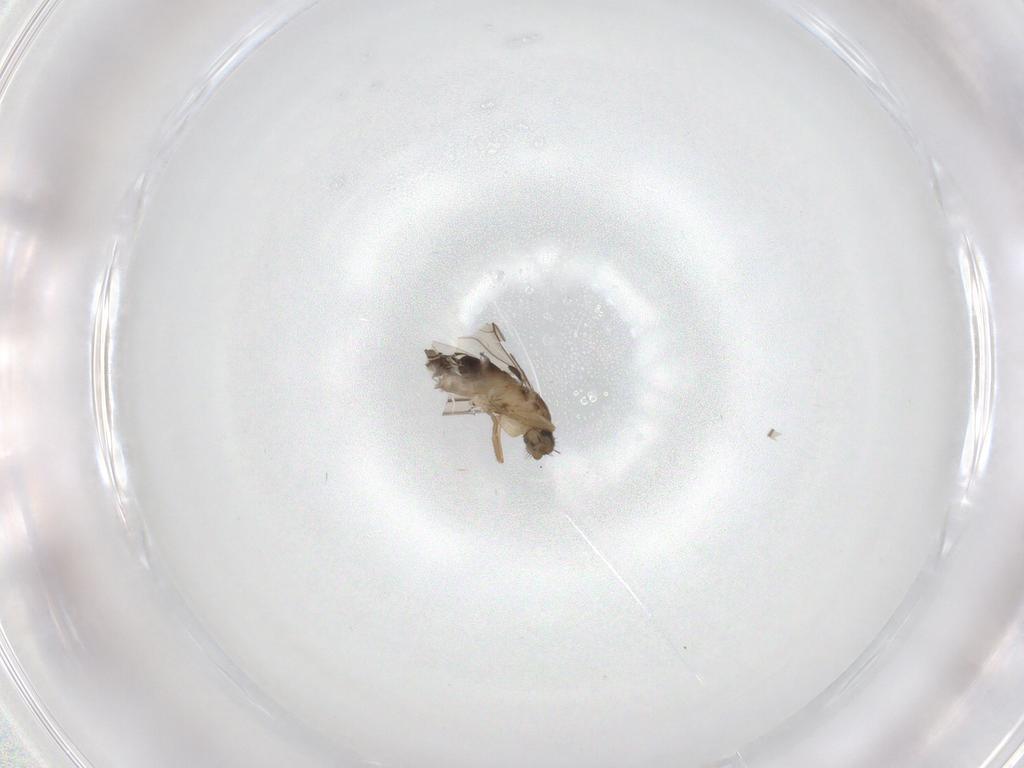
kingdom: Animalia
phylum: Arthropoda
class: Insecta
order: Diptera
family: Phoridae
